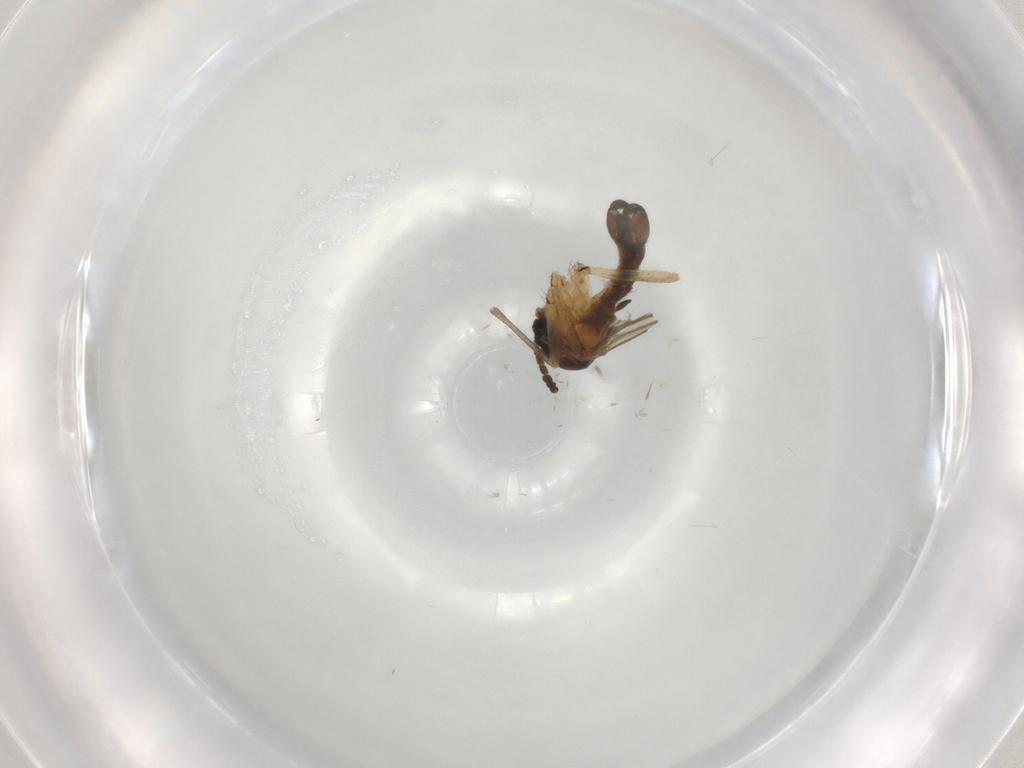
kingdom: Animalia
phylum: Arthropoda
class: Insecta
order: Diptera
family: Sciaridae
